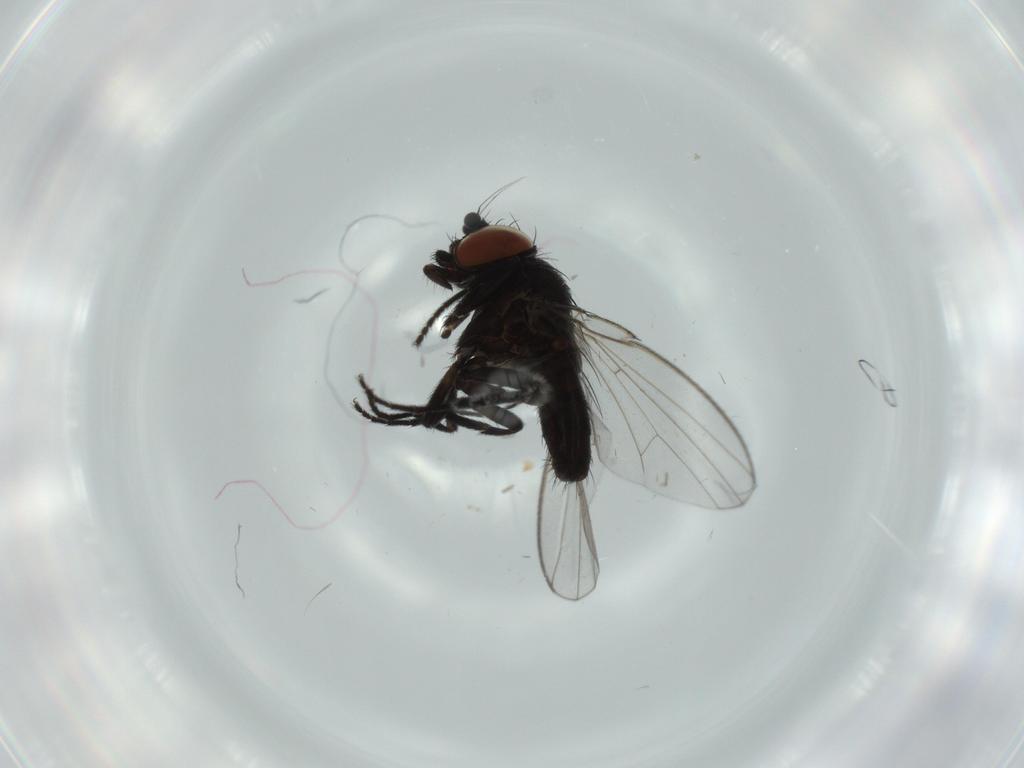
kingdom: Animalia
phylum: Arthropoda
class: Insecta
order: Diptera
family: Milichiidae
